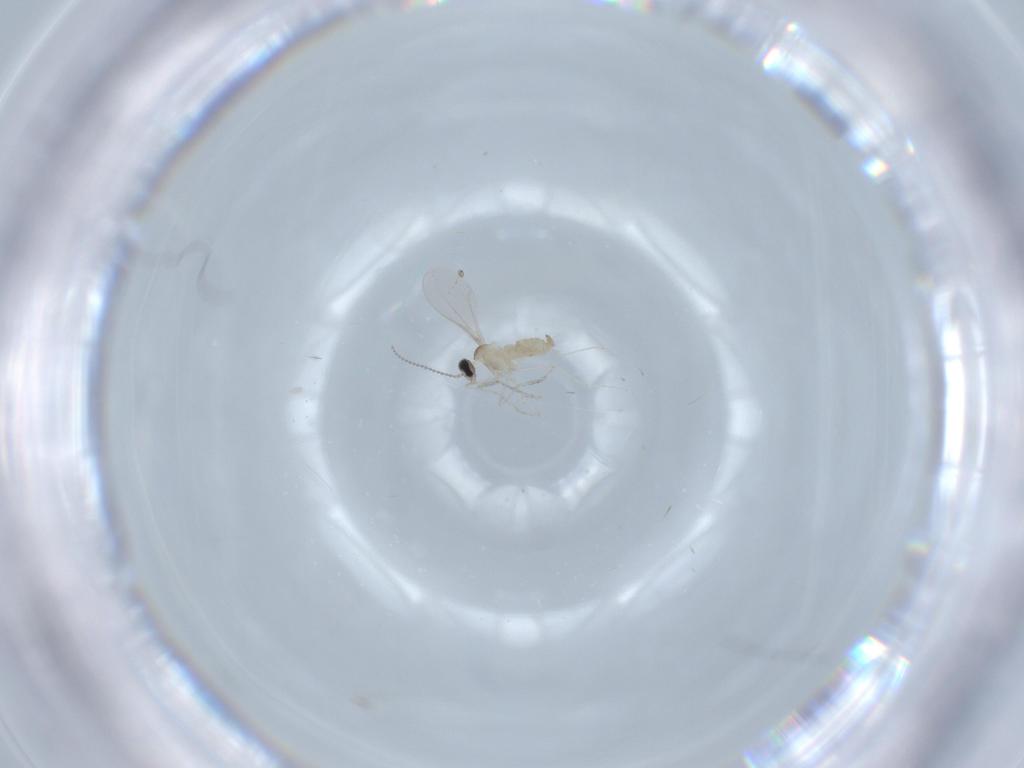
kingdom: Animalia
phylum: Arthropoda
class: Insecta
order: Diptera
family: Cecidomyiidae
